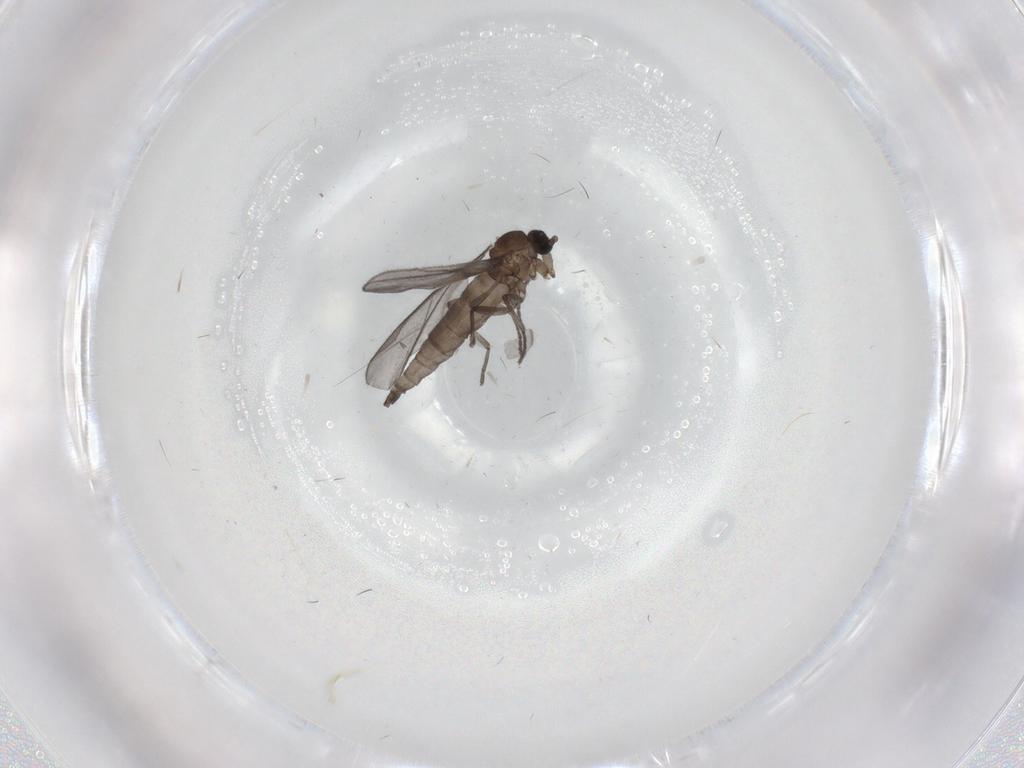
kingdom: Animalia
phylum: Arthropoda
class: Insecta
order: Diptera
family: Sciaridae
